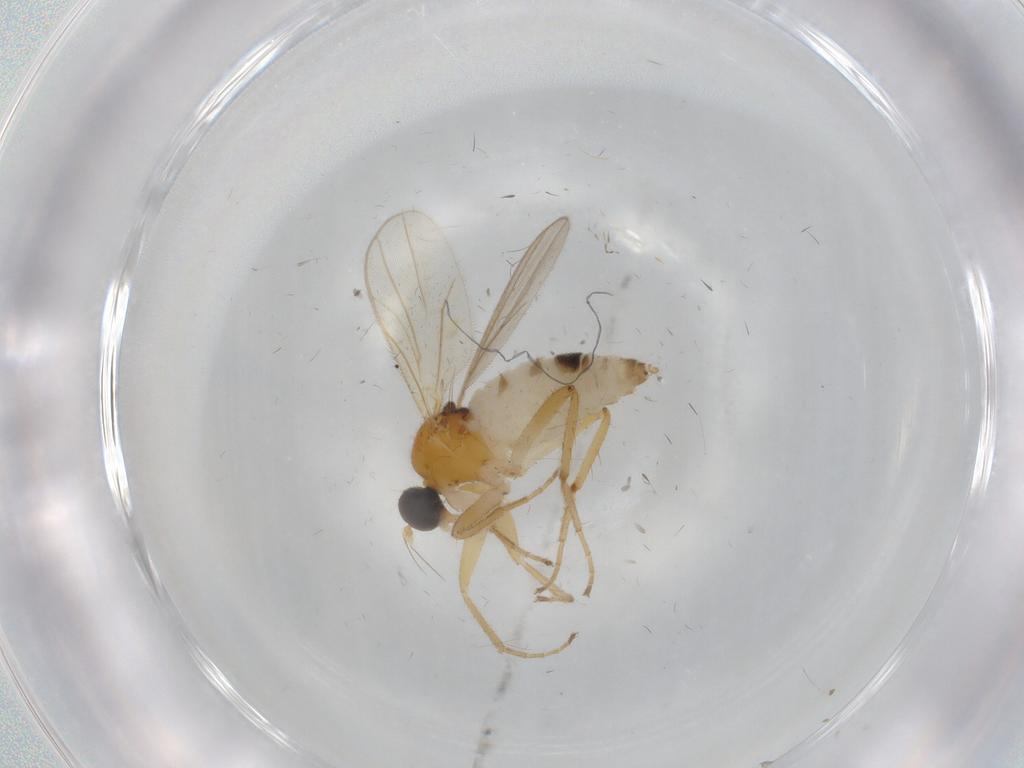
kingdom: Animalia
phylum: Arthropoda
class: Insecta
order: Diptera
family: Hybotidae
